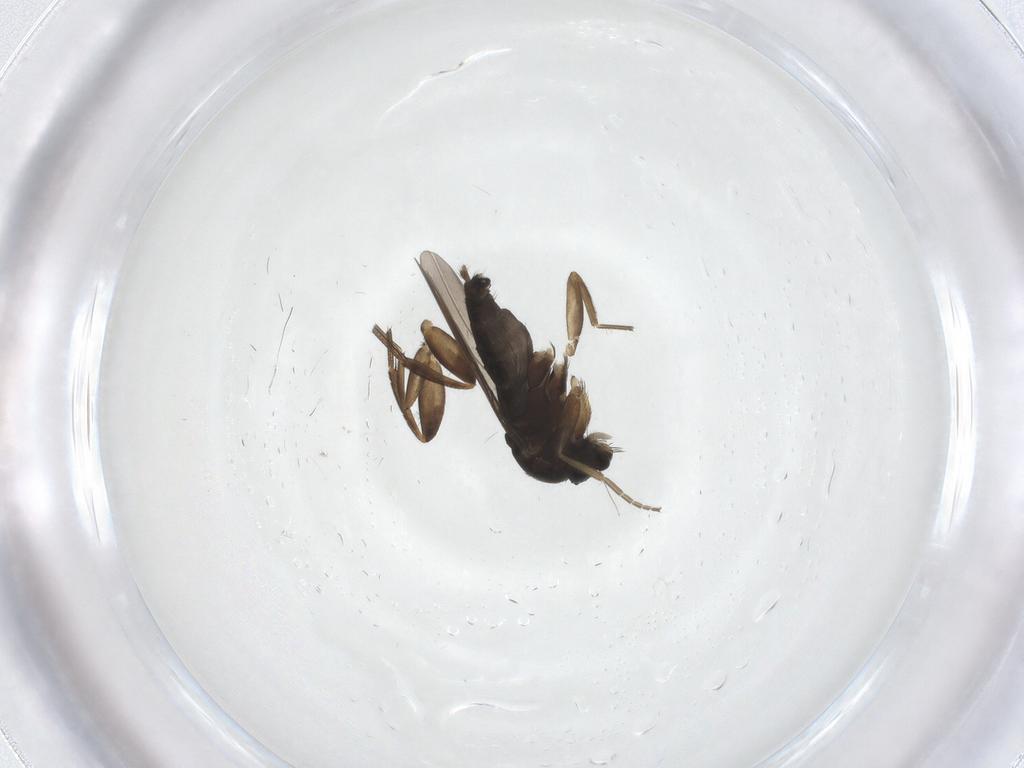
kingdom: Animalia
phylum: Arthropoda
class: Insecta
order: Diptera
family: Phoridae
